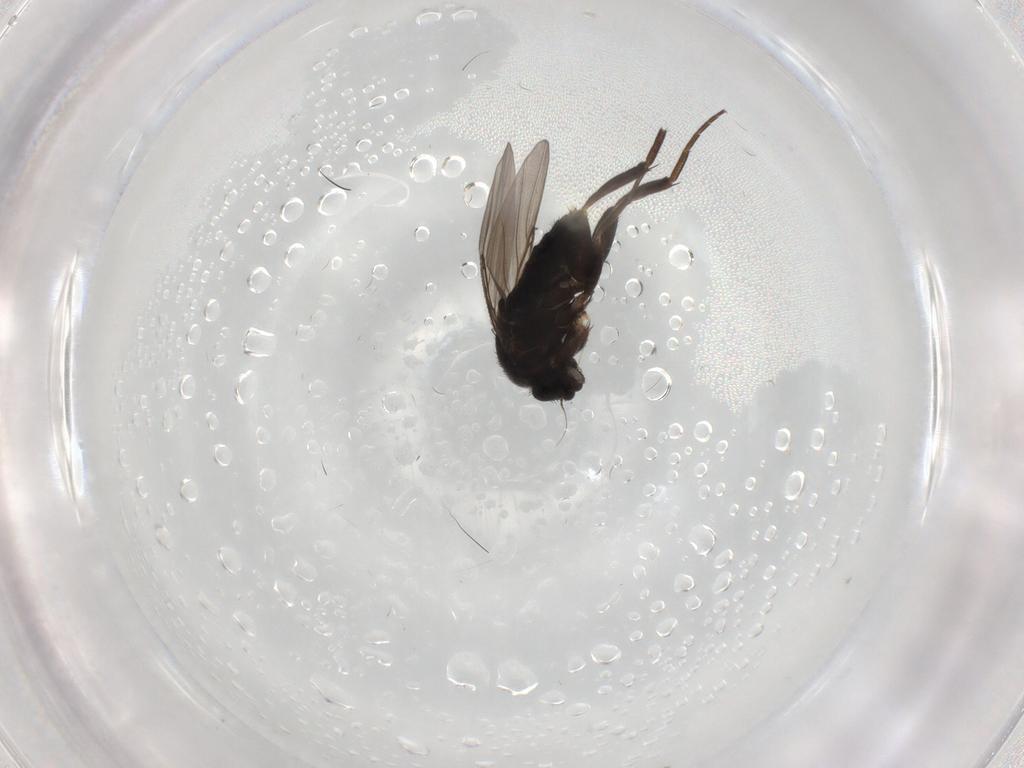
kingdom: Animalia
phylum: Arthropoda
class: Insecta
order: Diptera
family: Phoridae
